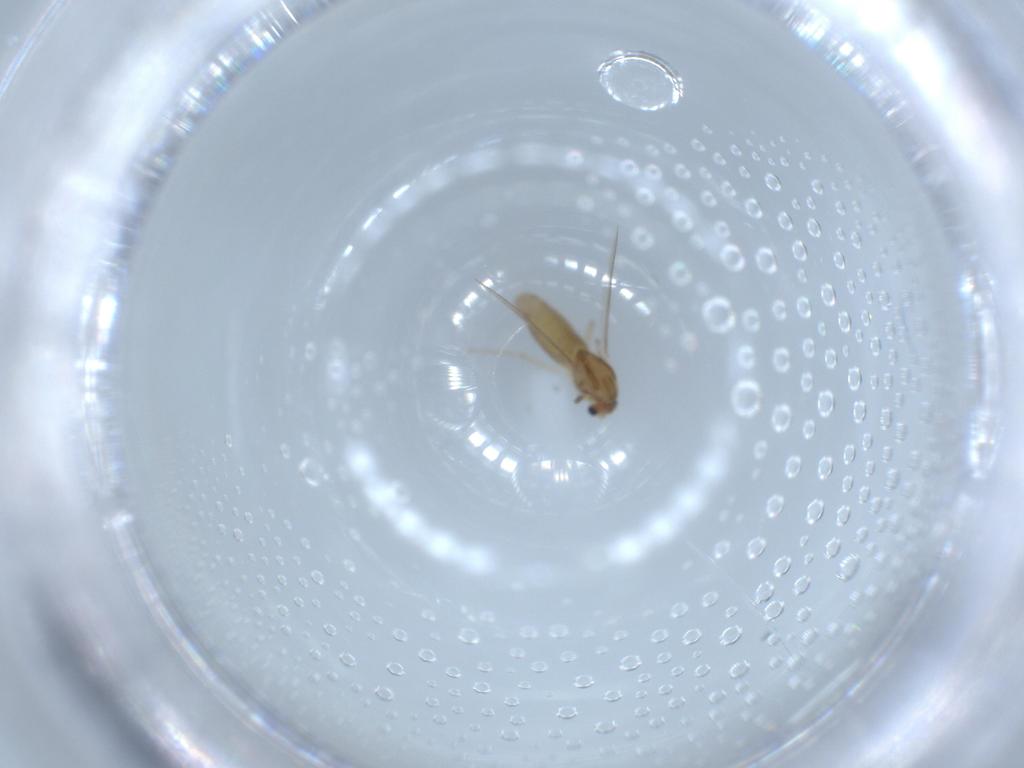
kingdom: Animalia
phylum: Arthropoda
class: Insecta
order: Diptera
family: Chironomidae
